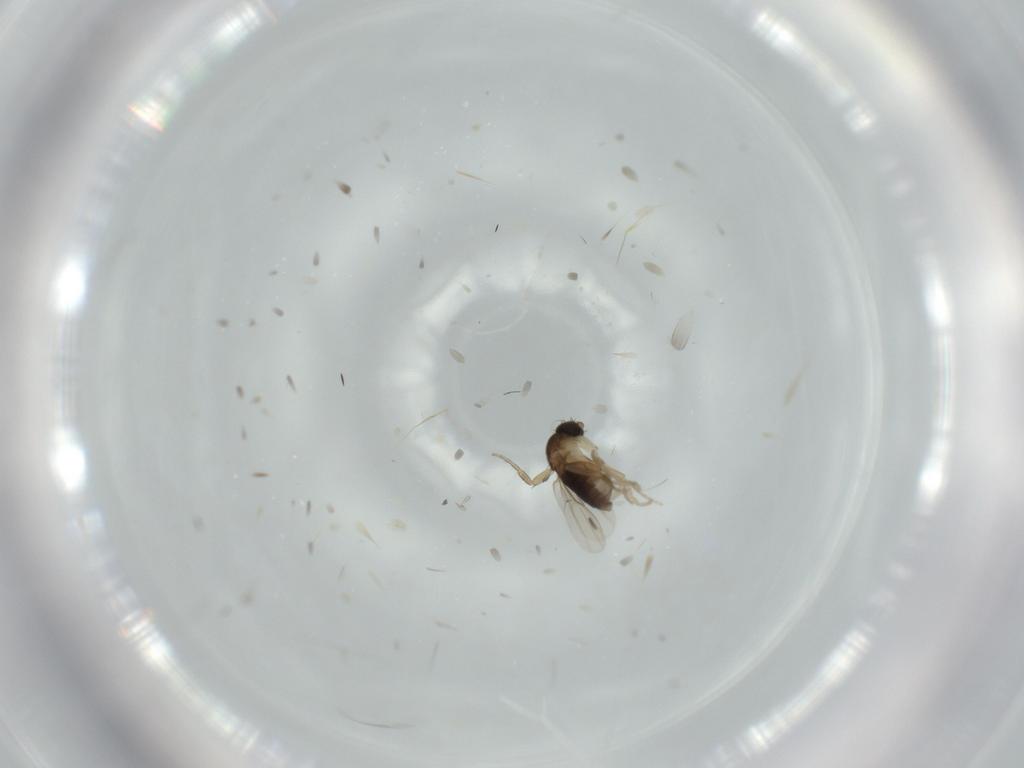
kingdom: Animalia
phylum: Arthropoda
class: Insecta
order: Diptera
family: Phoridae
